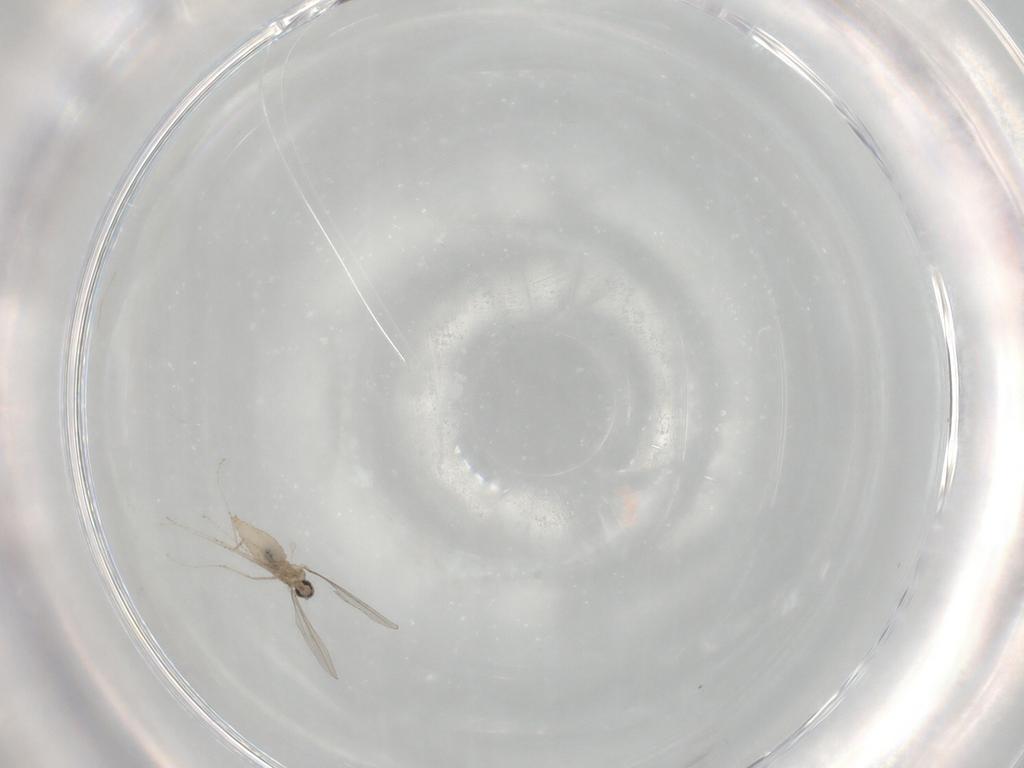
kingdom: Animalia
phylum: Arthropoda
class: Insecta
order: Diptera
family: Cecidomyiidae
